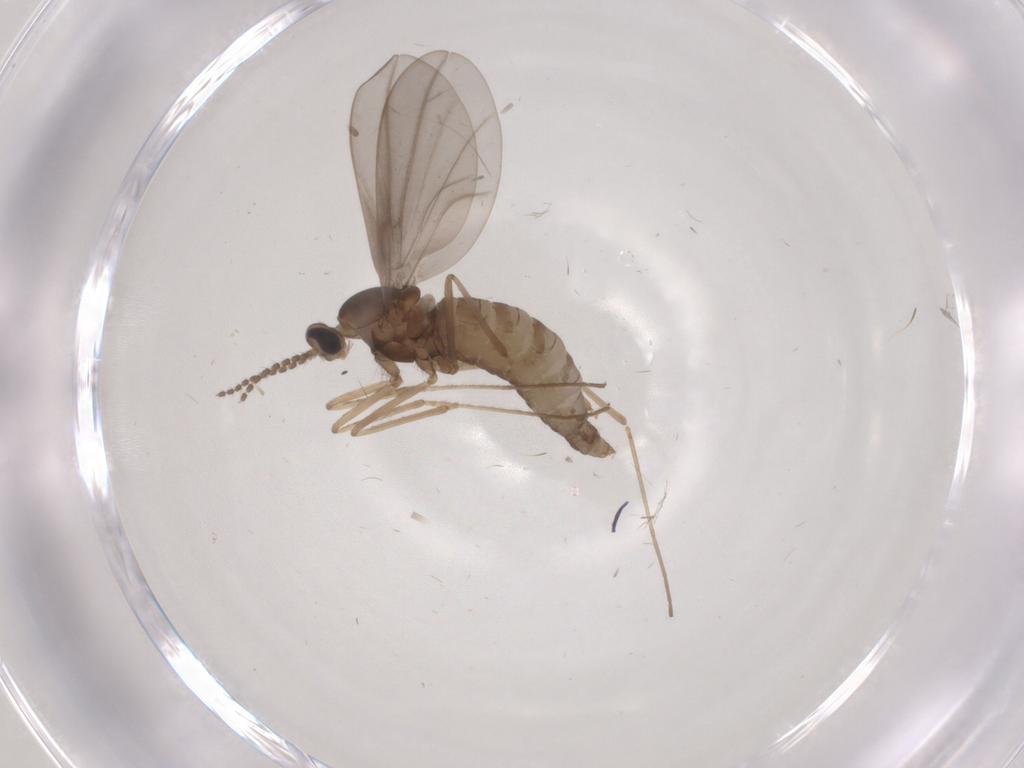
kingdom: Animalia
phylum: Arthropoda
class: Insecta
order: Diptera
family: Cecidomyiidae
